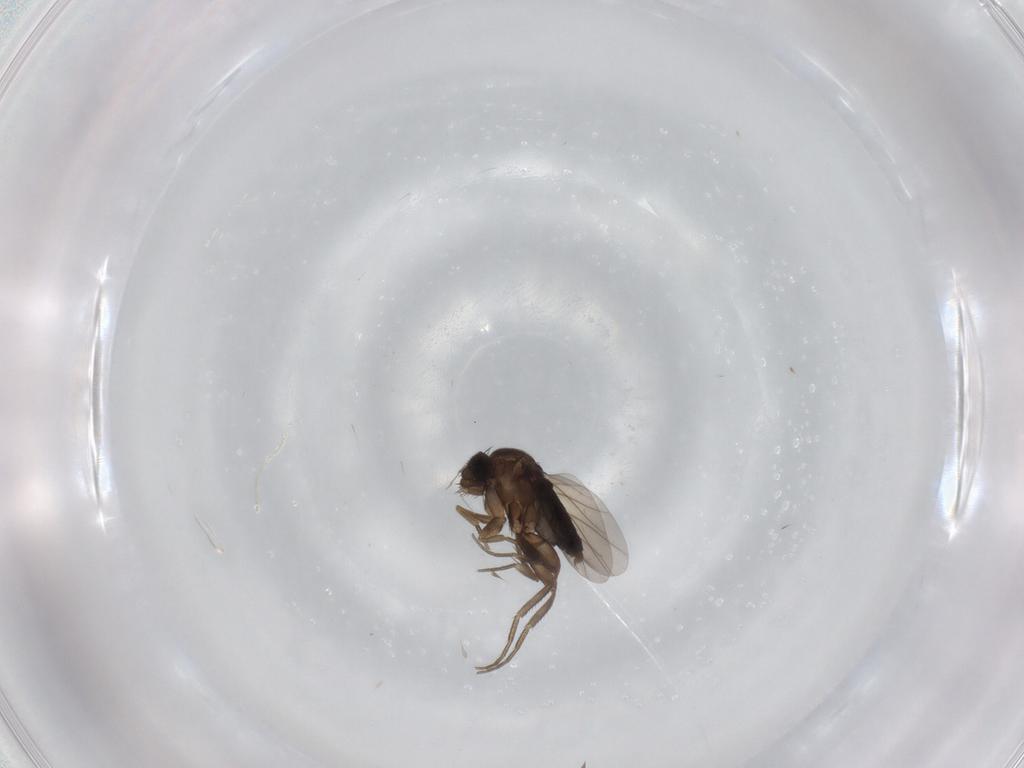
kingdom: Animalia
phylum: Arthropoda
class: Insecta
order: Diptera
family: Phoridae
